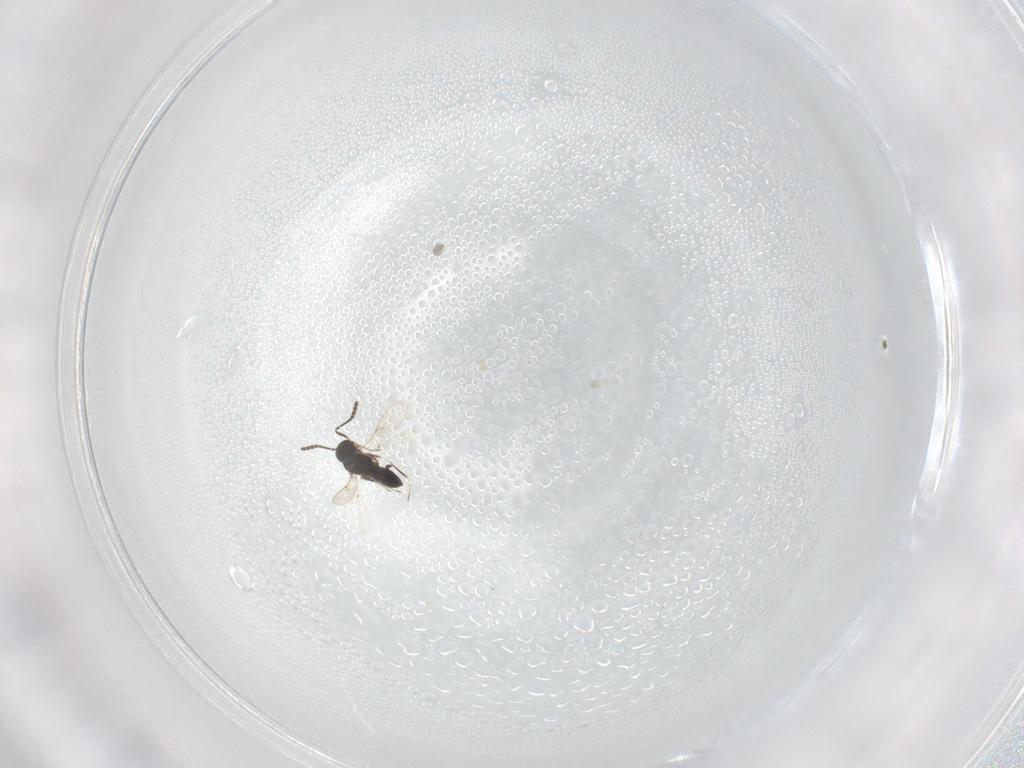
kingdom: Animalia
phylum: Arthropoda
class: Insecta
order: Hymenoptera
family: Scelionidae
